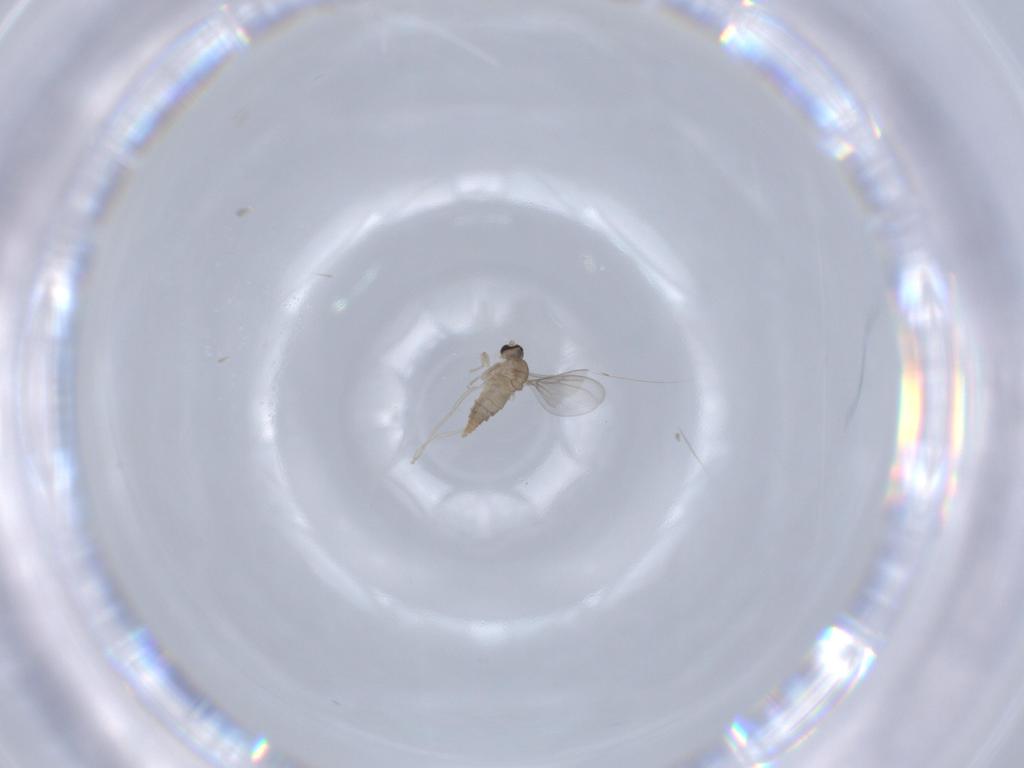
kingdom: Animalia
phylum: Arthropoda
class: Insecta
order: Diptera
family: Cecidomyiidae
